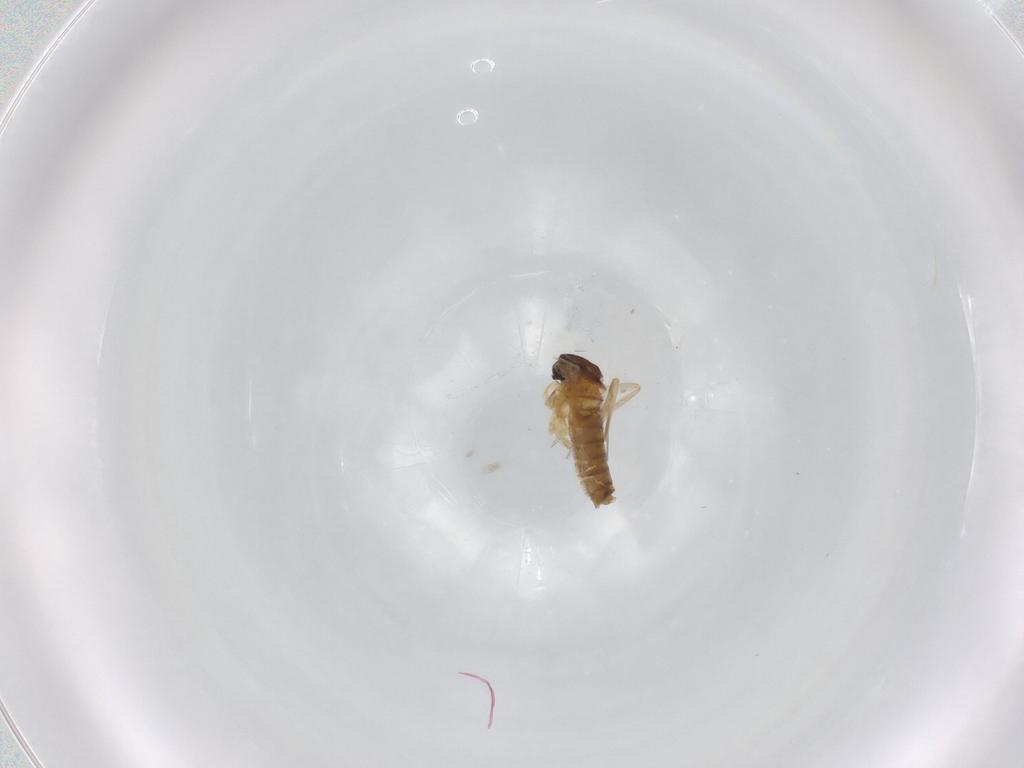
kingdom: Animalia
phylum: Arthropoda
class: Insecta
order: Diptera
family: Cecidomyiidae
